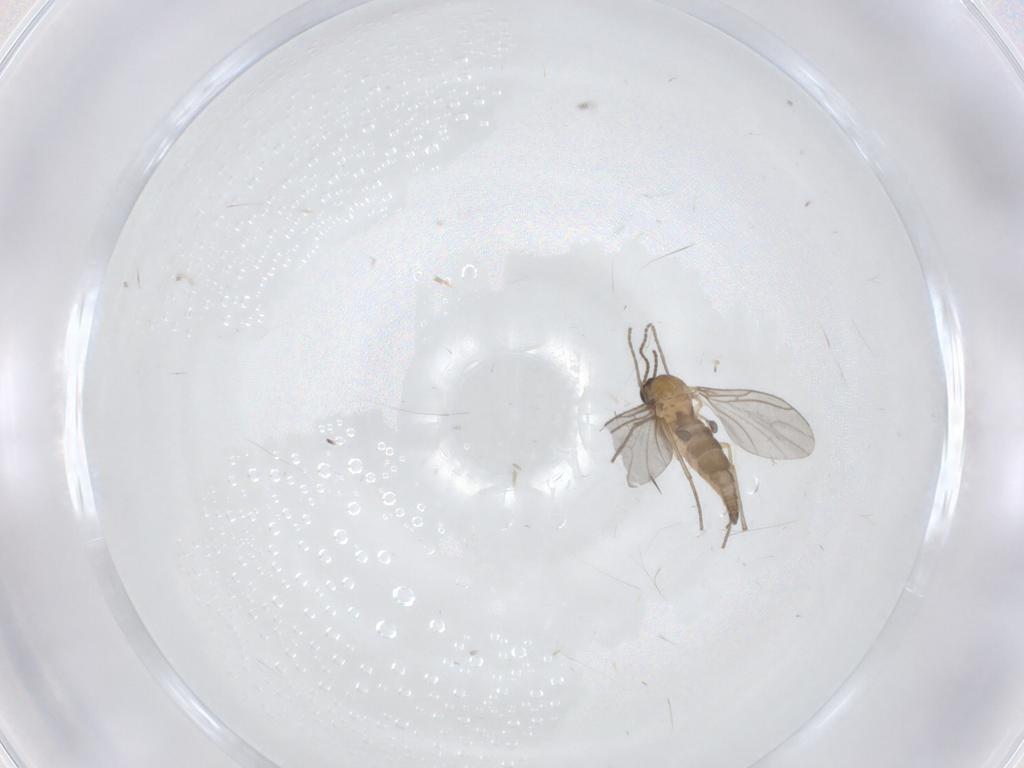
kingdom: Animalia
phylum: Arthropoda
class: Insecta
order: Diptera
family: Sciaridae
